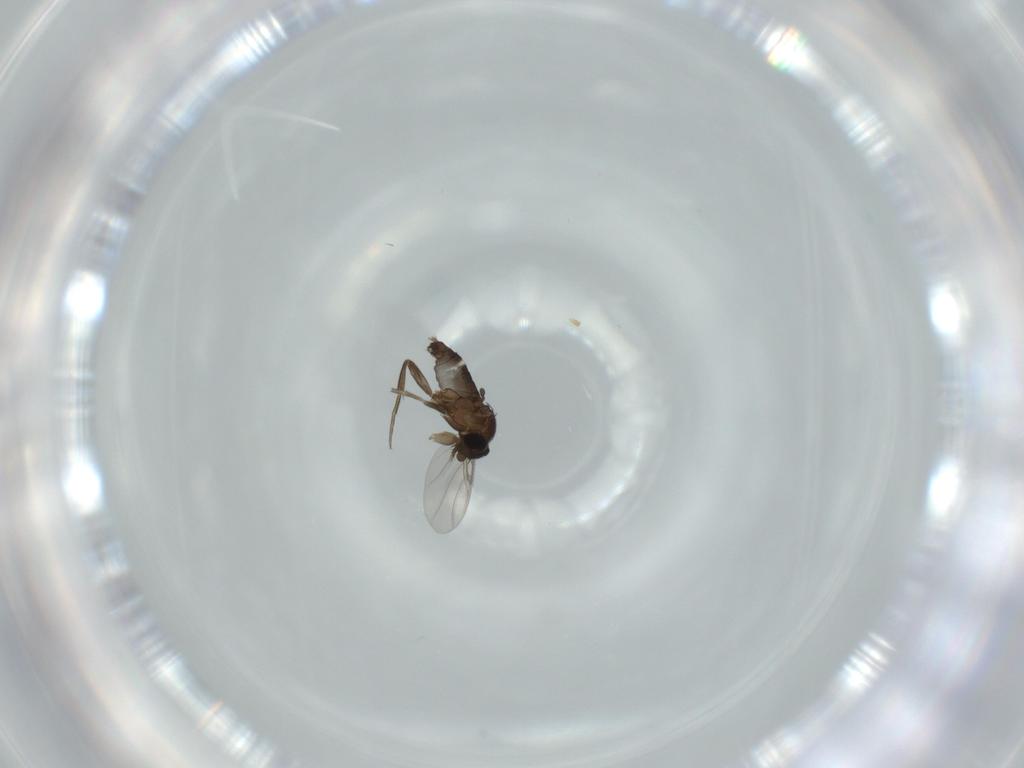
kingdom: Animalia
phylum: Arthropoda
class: Insecta
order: Diptera
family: Phoridae
